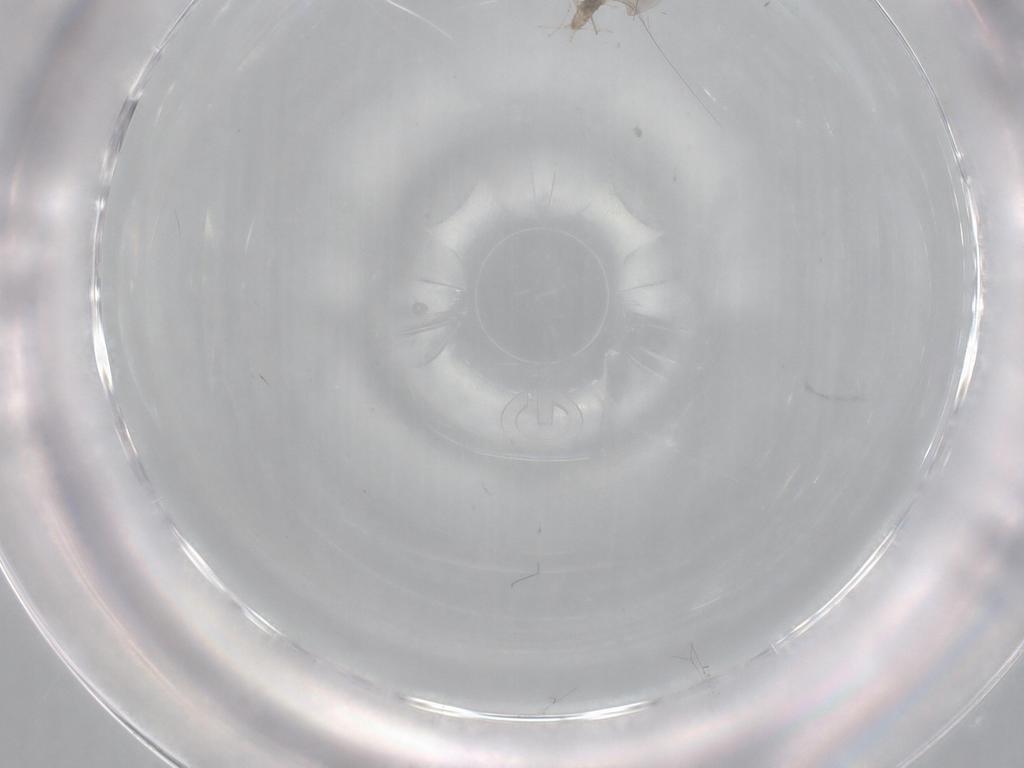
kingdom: Animalia
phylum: Arthropoda
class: Insecta
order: Diptera
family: Cecidomyiidae
